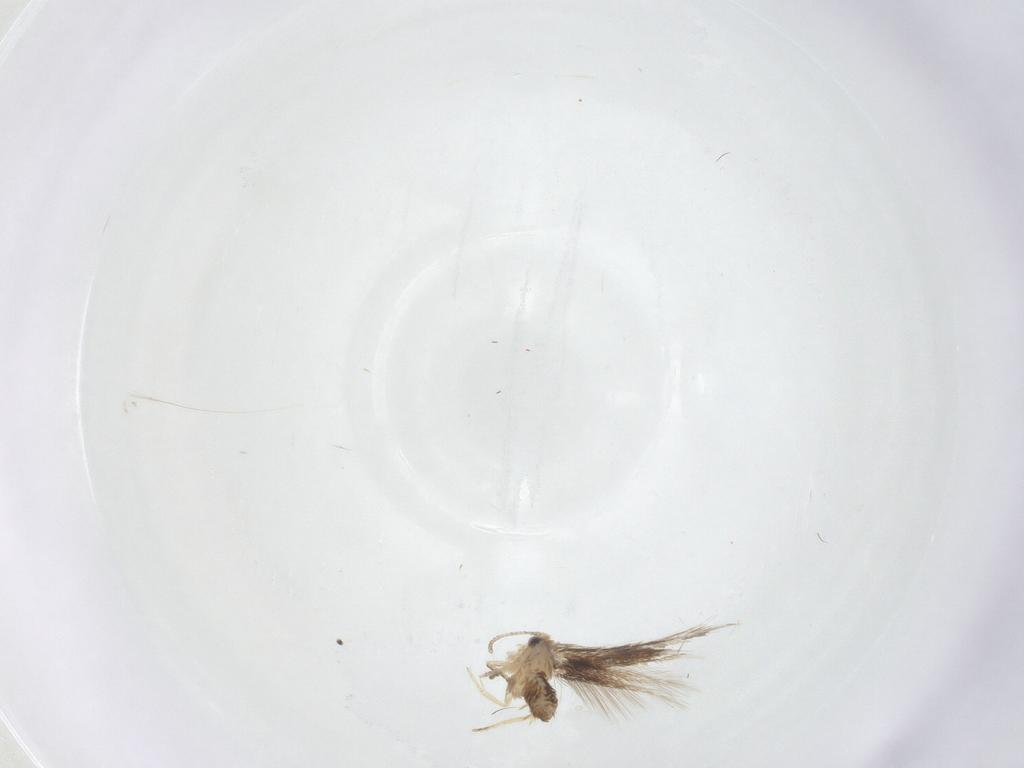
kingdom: Animalia
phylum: Arthropoda
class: Insecta
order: Lepidoptera
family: Nepticulidae
